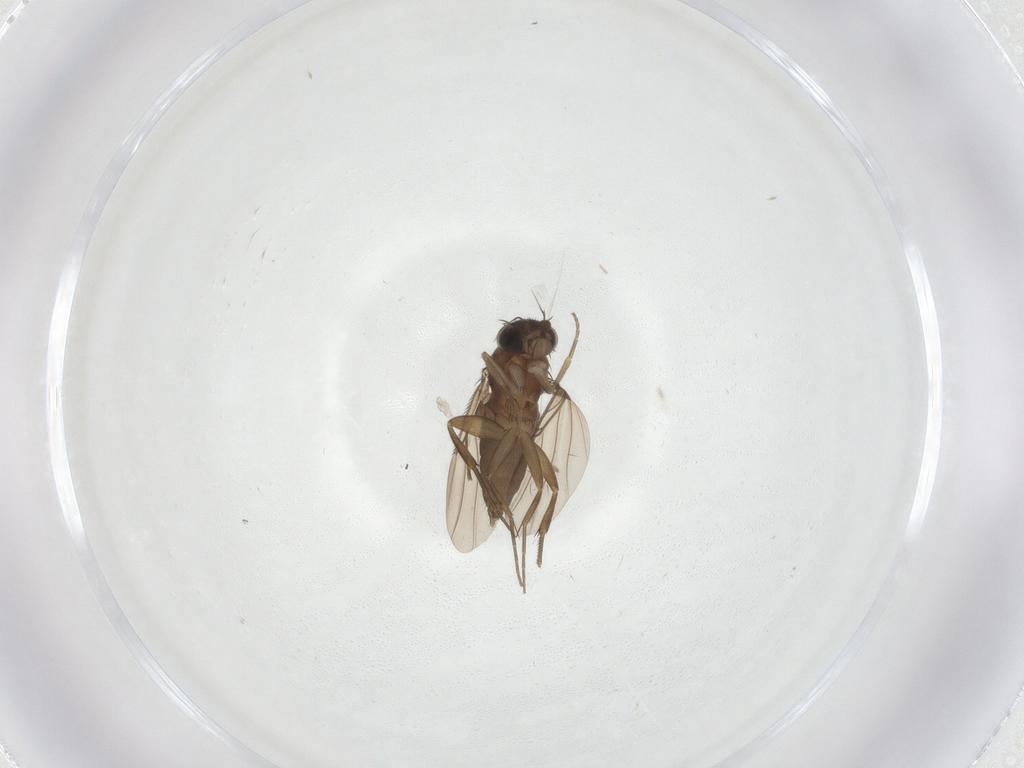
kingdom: Animalia
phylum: Arthropoda
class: Insecta
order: Diptera
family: Phoridae
